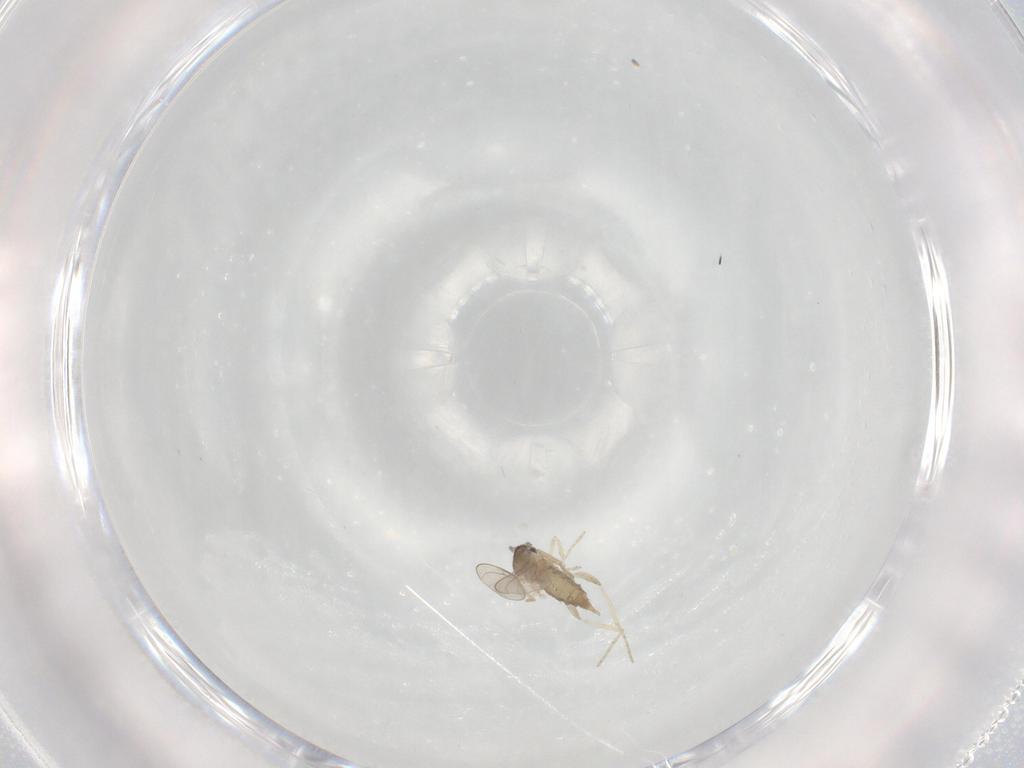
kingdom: Animalia
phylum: Arthropoda
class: Insecta
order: Diptera
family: Cecidomyiidae
